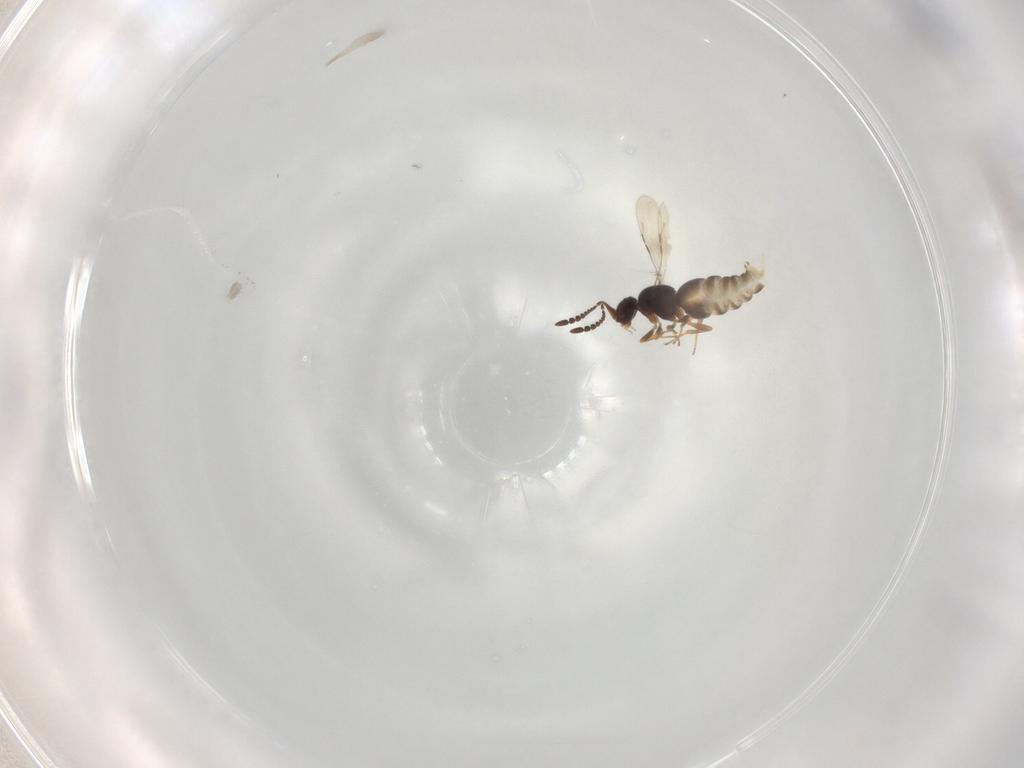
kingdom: Animalia
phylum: Arthropoda
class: Insecta
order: Hymenoptera
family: Ceraphronidae
